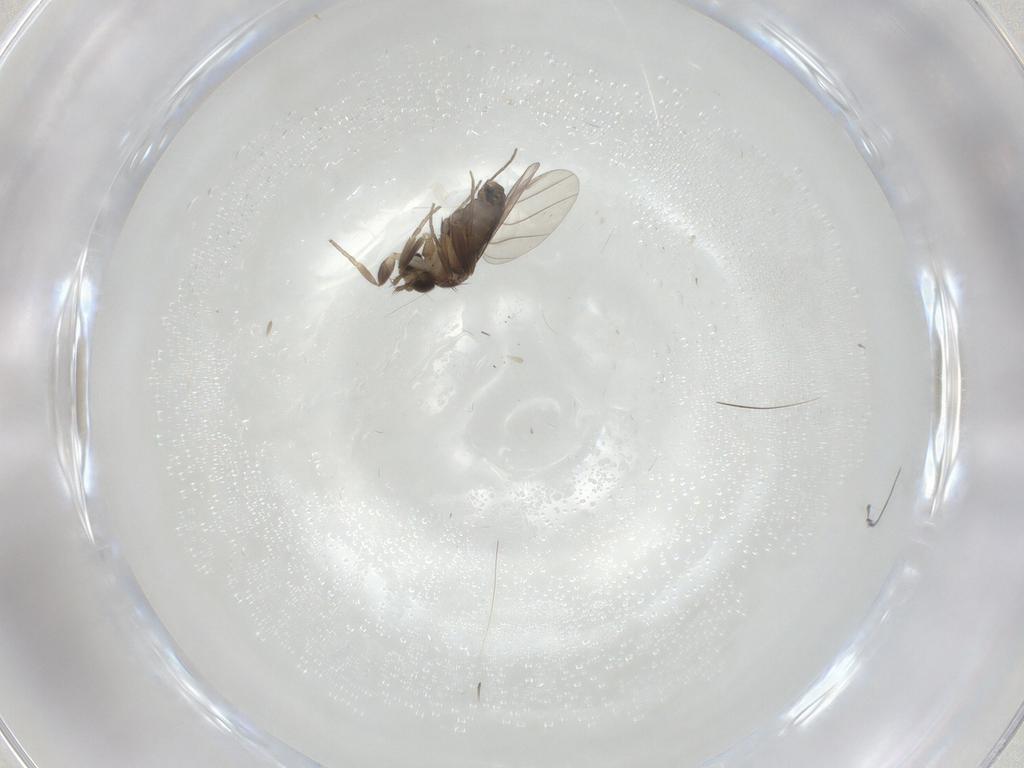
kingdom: Animalia
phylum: Arthropoda
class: Insecta
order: Diptera
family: Phoridae
